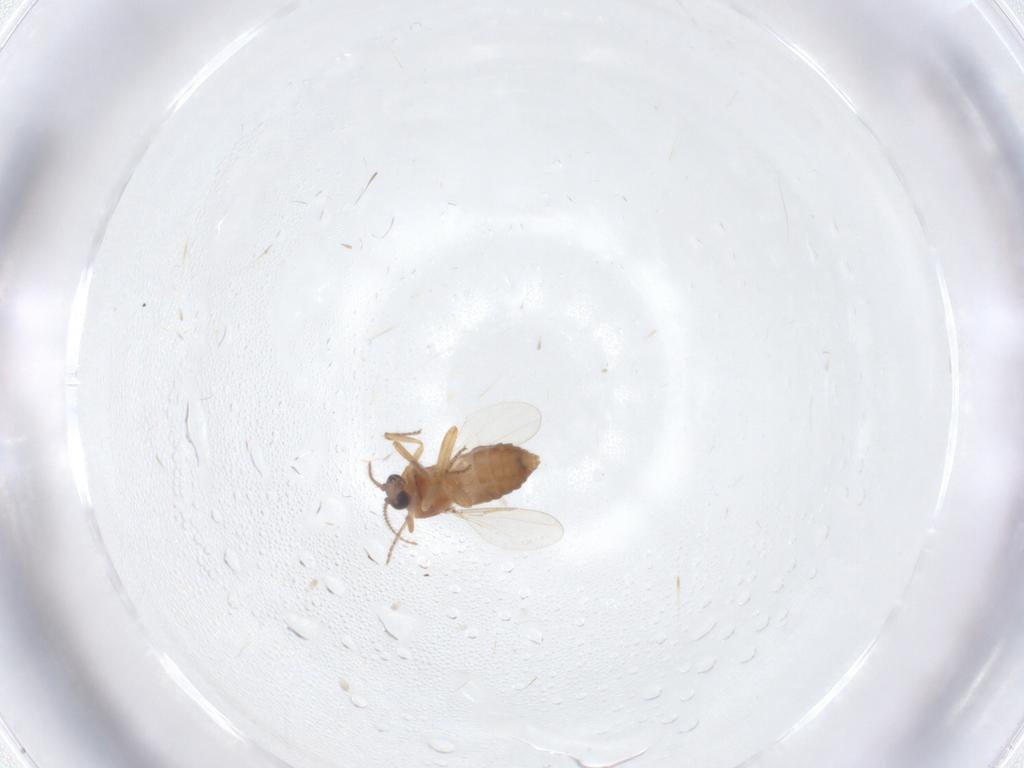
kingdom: Animalia
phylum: Arthropoda
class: Insecta
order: Diptera
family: Ceratopogonidae
